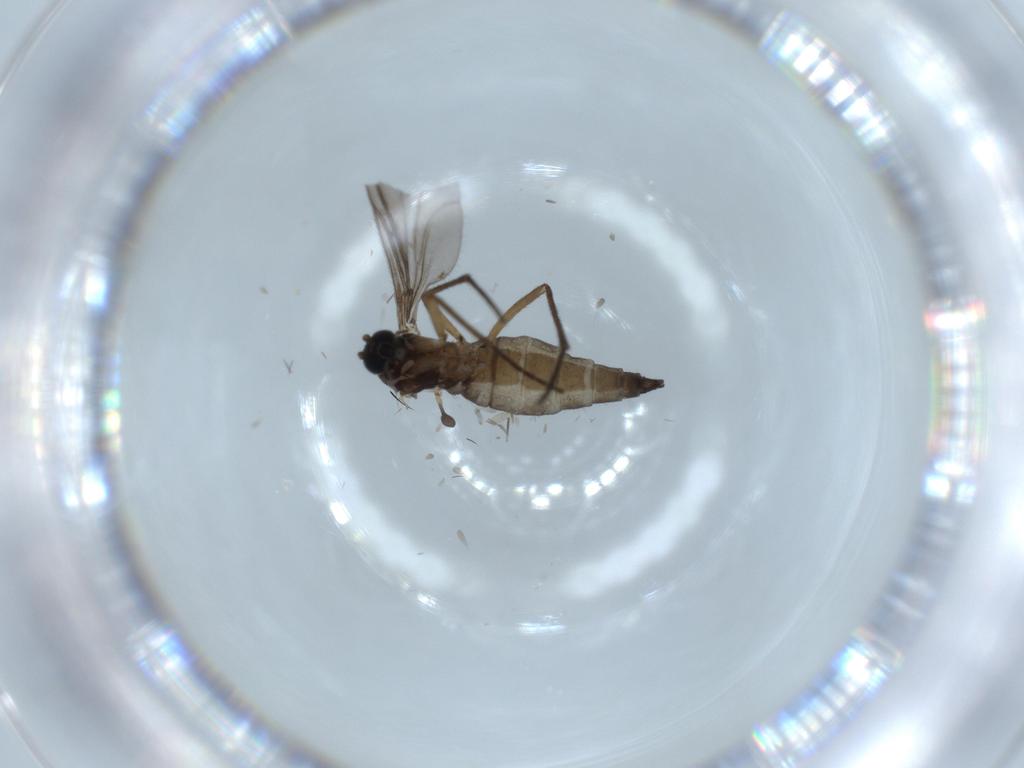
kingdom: Animalia
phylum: Arthropoda
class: Insecta
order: Diptera
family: Sciaridae
